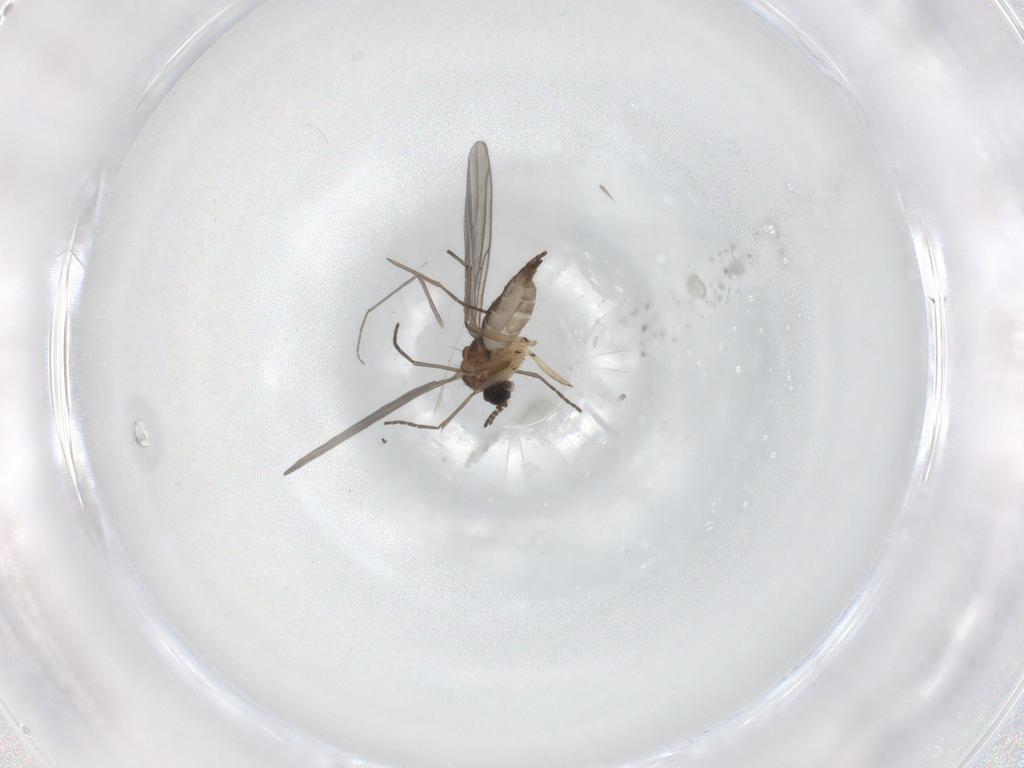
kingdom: Animalia
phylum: Arthropoda
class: Insecta
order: Diptera
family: Sciaridae
